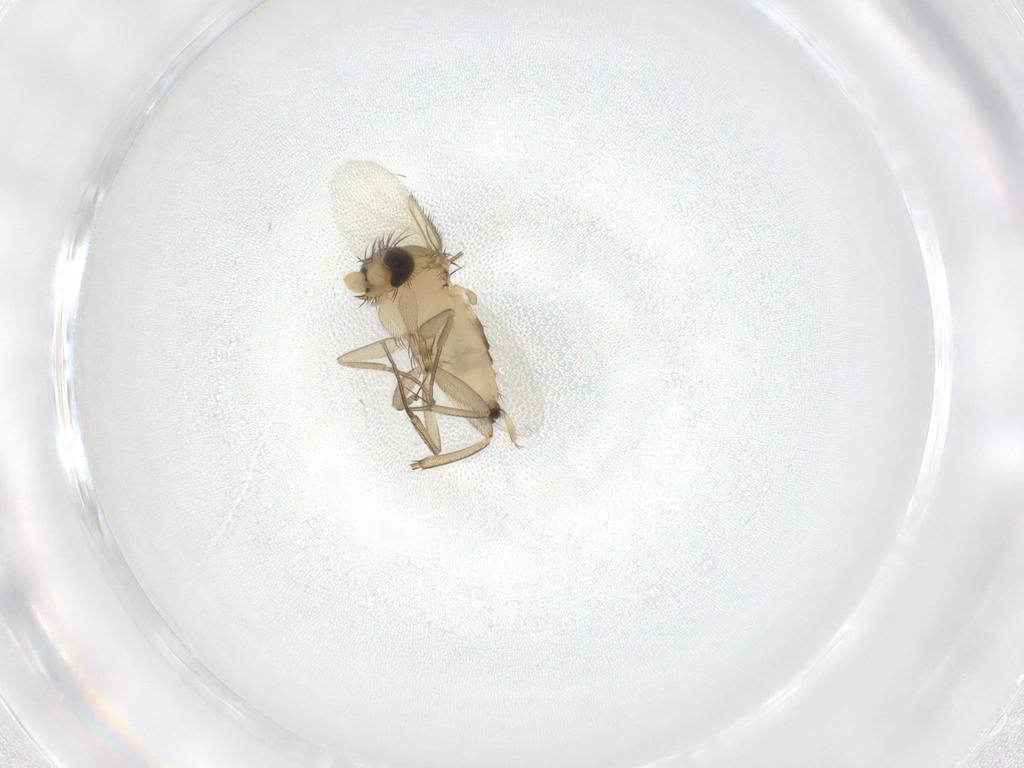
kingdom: Animalia
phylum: Arthropoda
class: Insecta
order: Diptera
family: Phoridae
